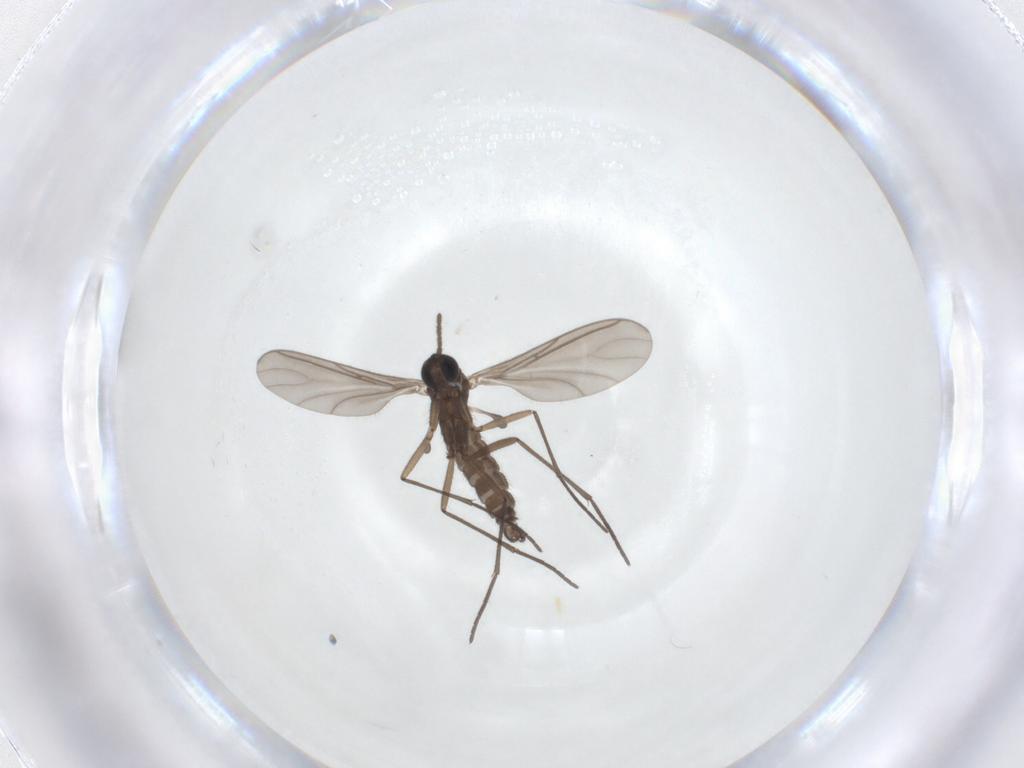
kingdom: Animalia
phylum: Arthropoda
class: Insecta
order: Diptera
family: Sciaridae
